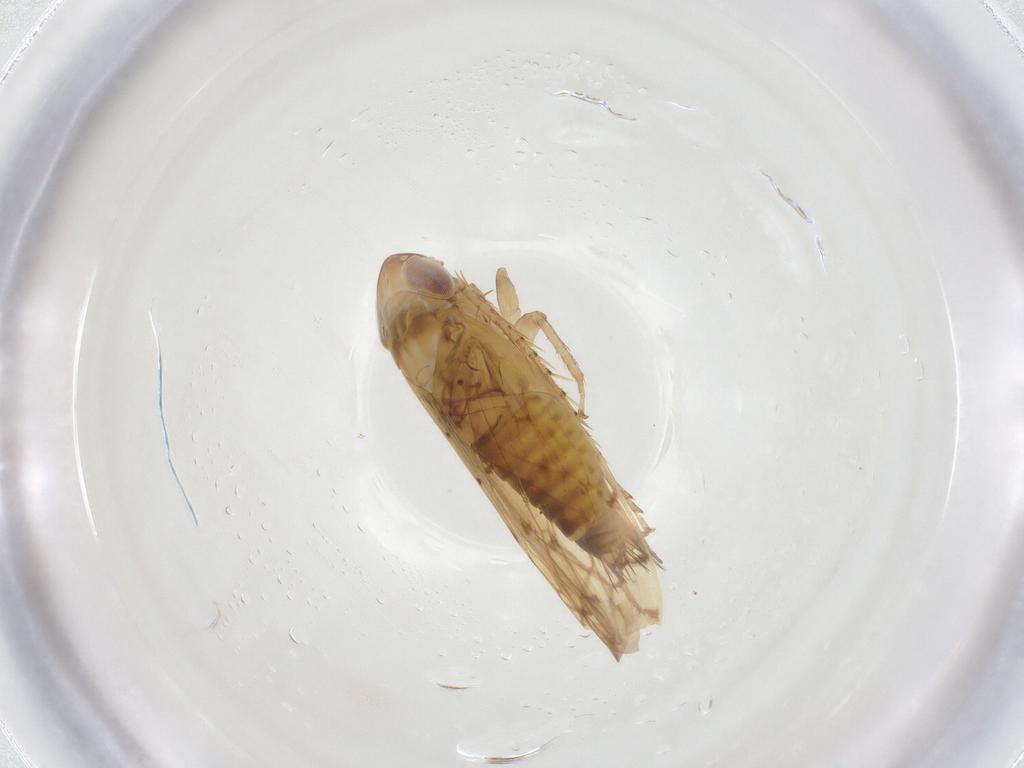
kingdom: Animalia
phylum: Arthropoda
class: Insecta
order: Hemiptera
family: Cicadellidae
